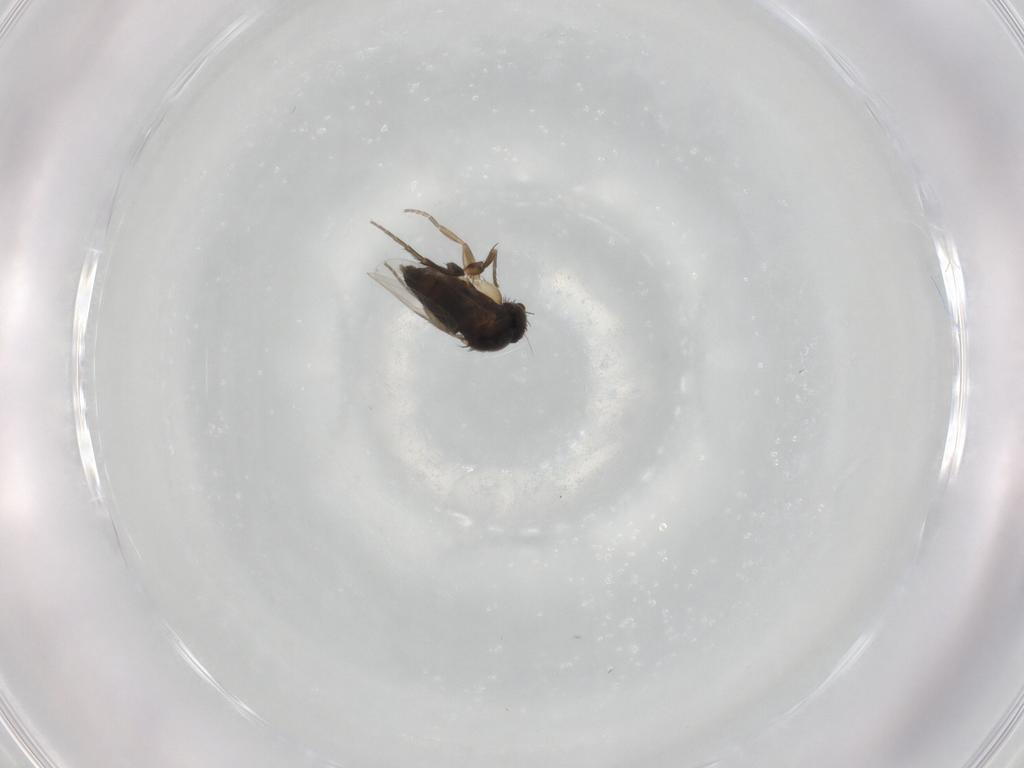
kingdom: Animalia
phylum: Arthropoda
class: Insecta
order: Diptera
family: Phoridae
